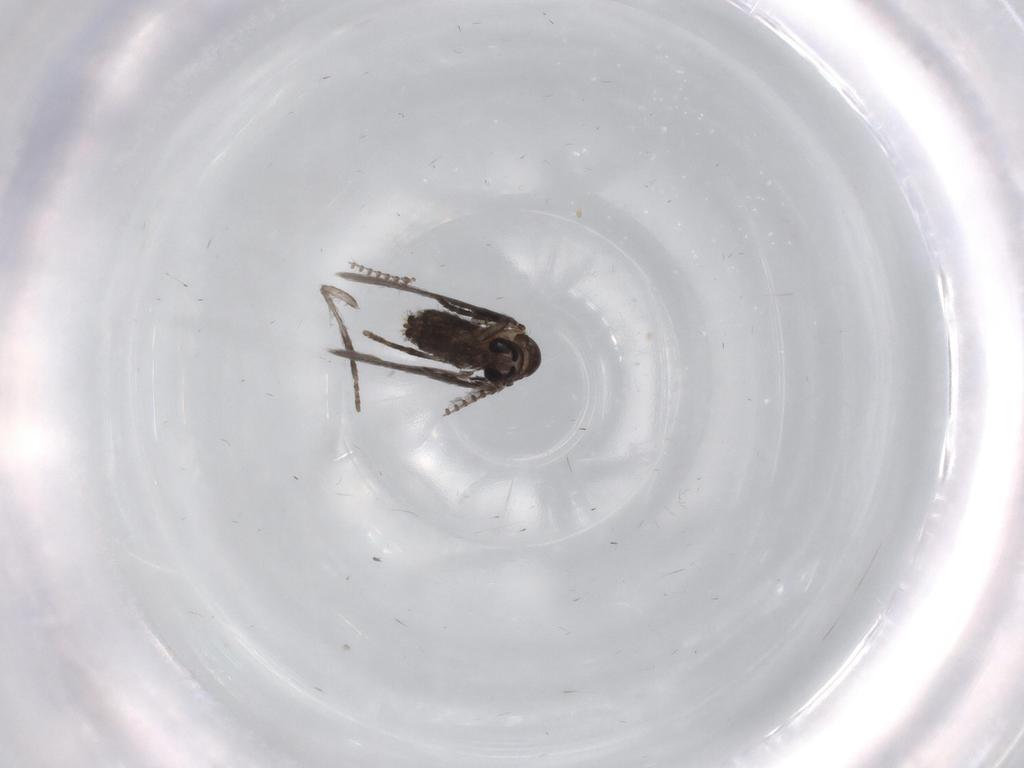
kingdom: Animalia
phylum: Arthropoda
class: Insecta
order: Diptera
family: Psychodidae
